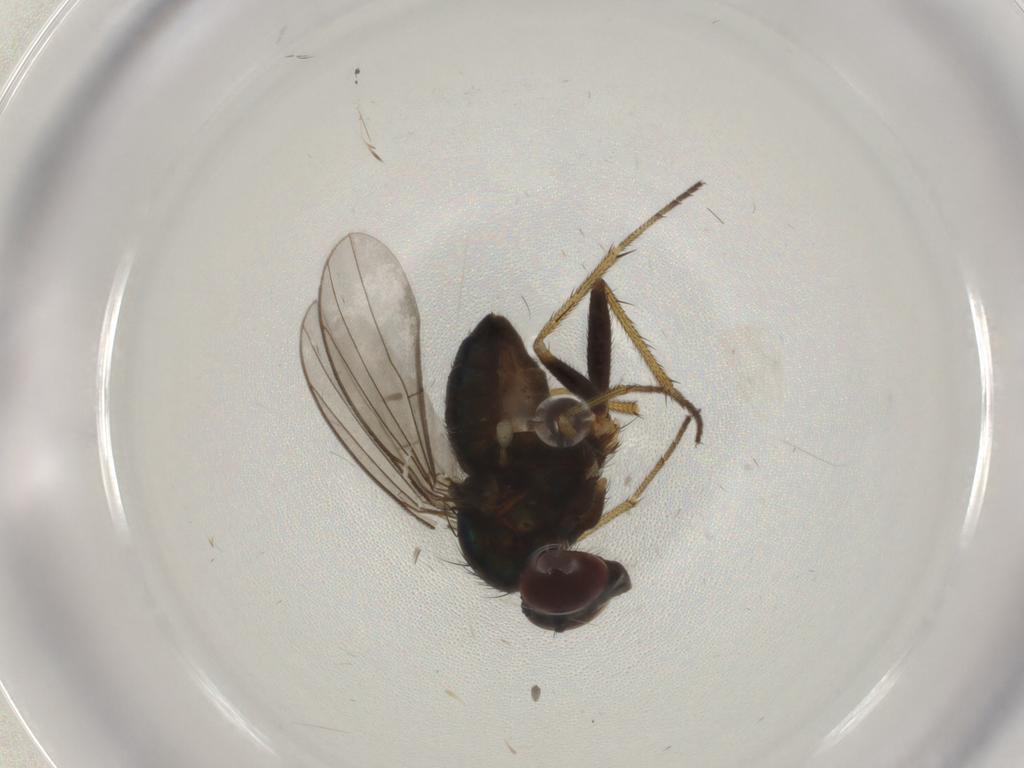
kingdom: Animalia
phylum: Arthropoda
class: Insecta
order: Diptera
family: Dolichopodidae
